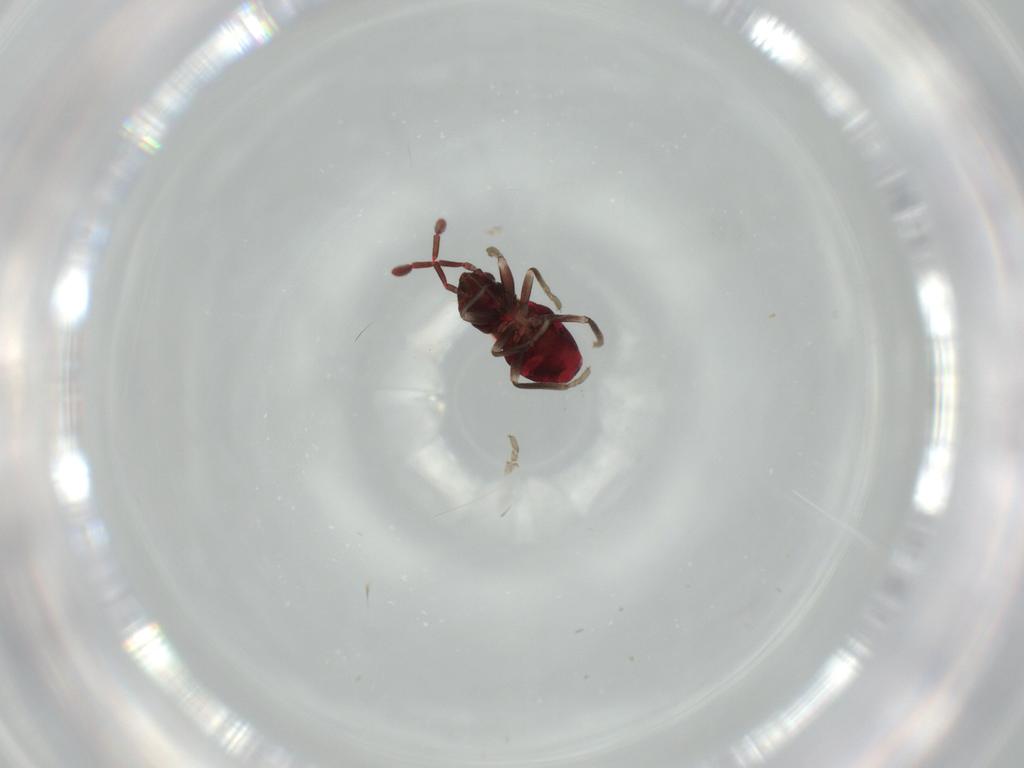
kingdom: Animalia
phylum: Arthropoda
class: Insecta
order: Hemiptera
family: Rhyparochromidae
